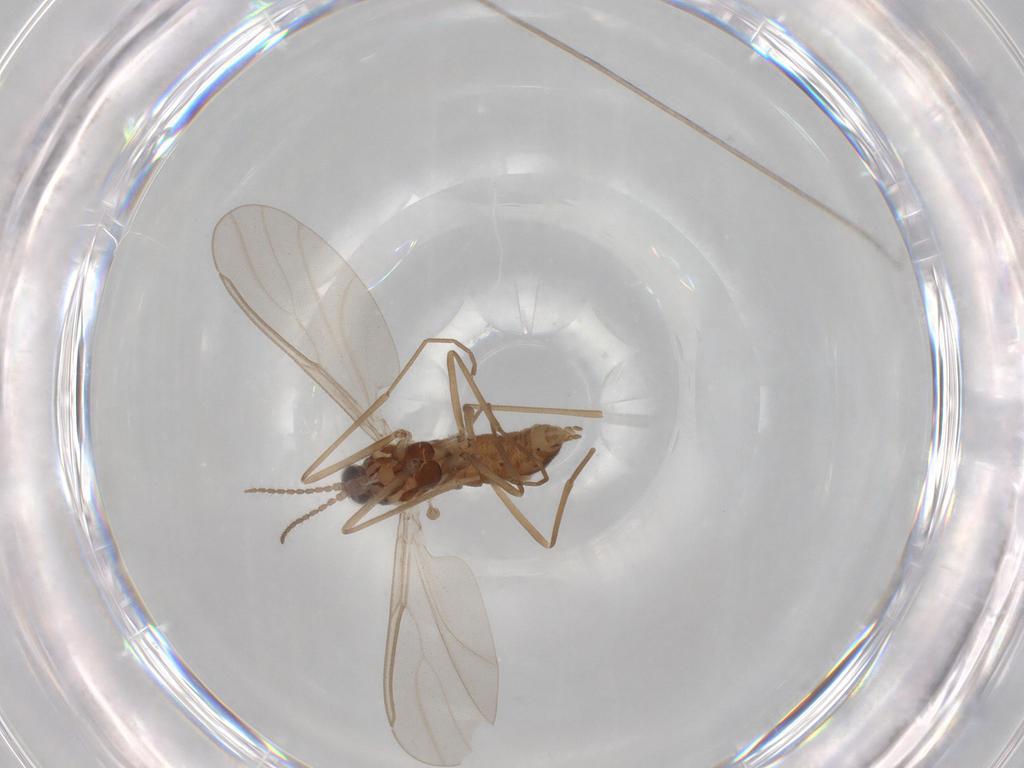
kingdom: Animalia
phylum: Arthropoda
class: Insecta
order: Diptera
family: Cecidomyiidae
